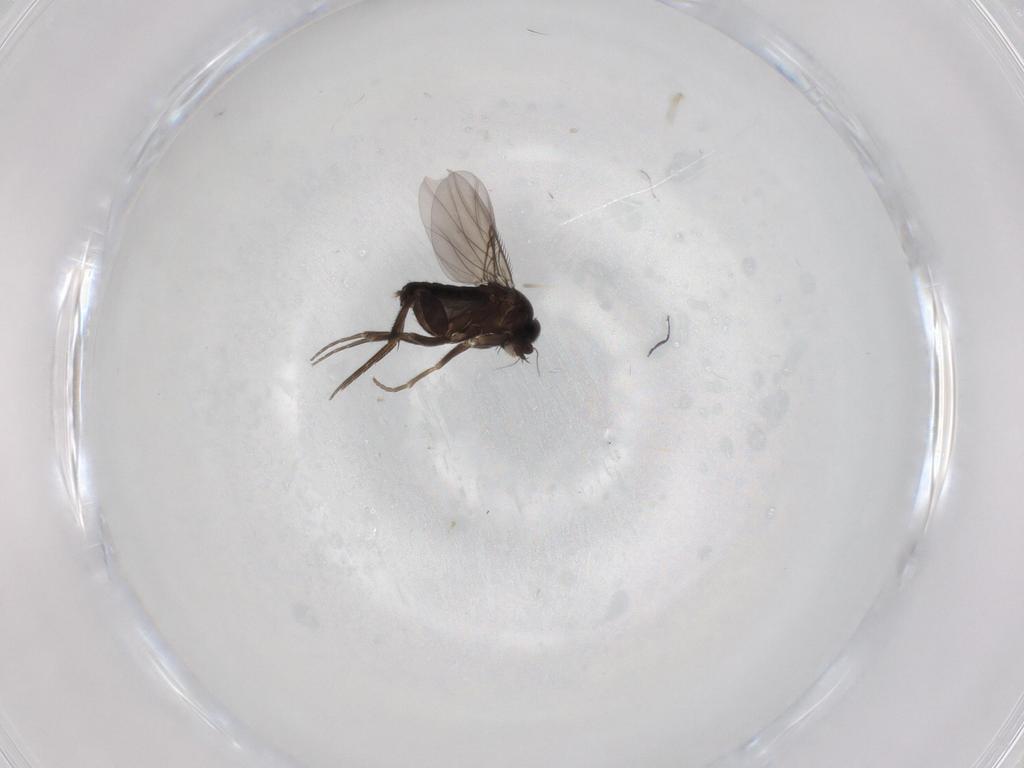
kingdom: Animalia
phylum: Arthropoda
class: Insecta
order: Diptera
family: Phoridae
